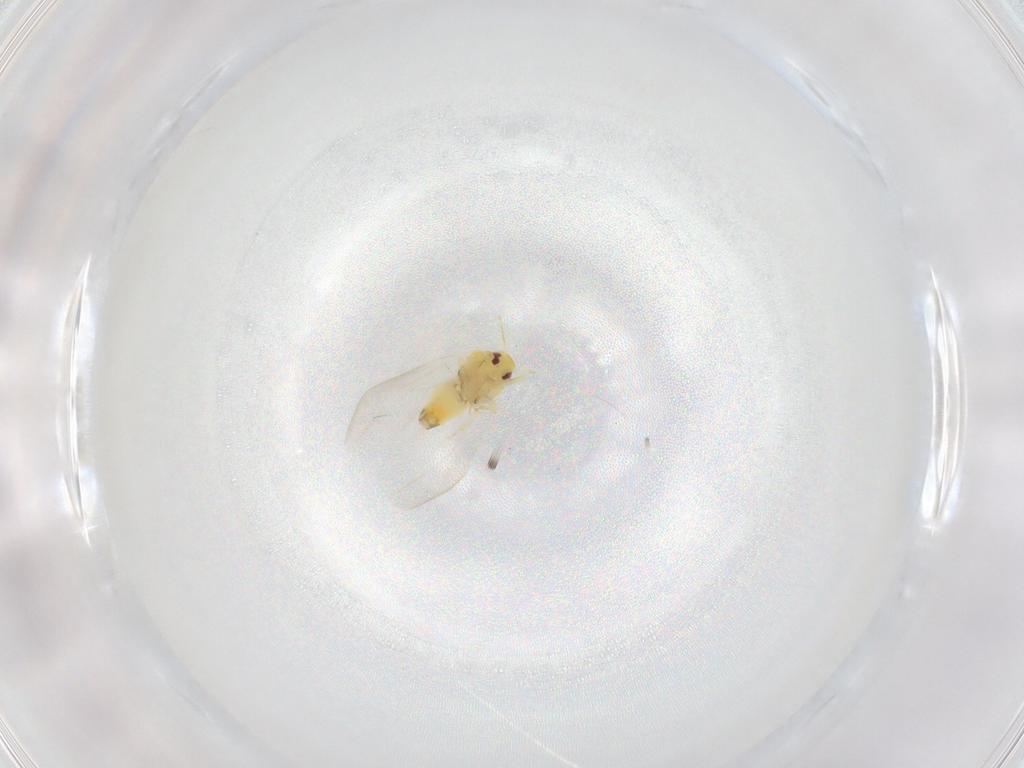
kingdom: Animalia
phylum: Arthropoda
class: Insecta
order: Hemiptera
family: Aleyrodidae
